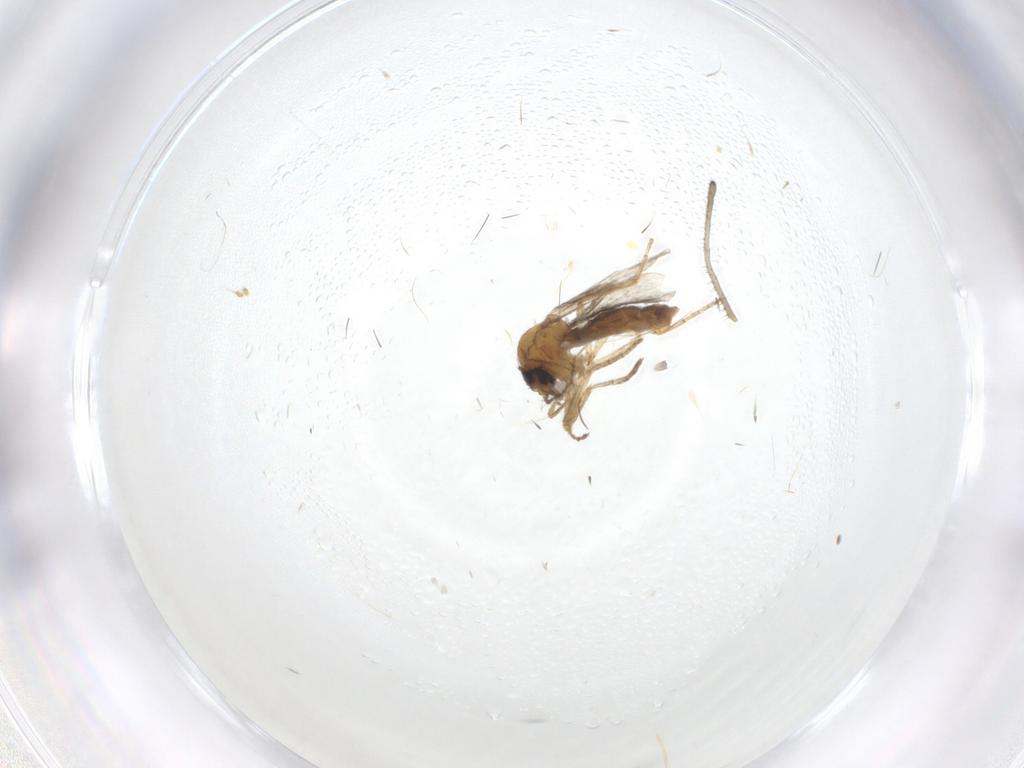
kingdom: Animalia
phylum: Arthropoda
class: Insecta
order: Diptera
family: Ceratopogonidae
